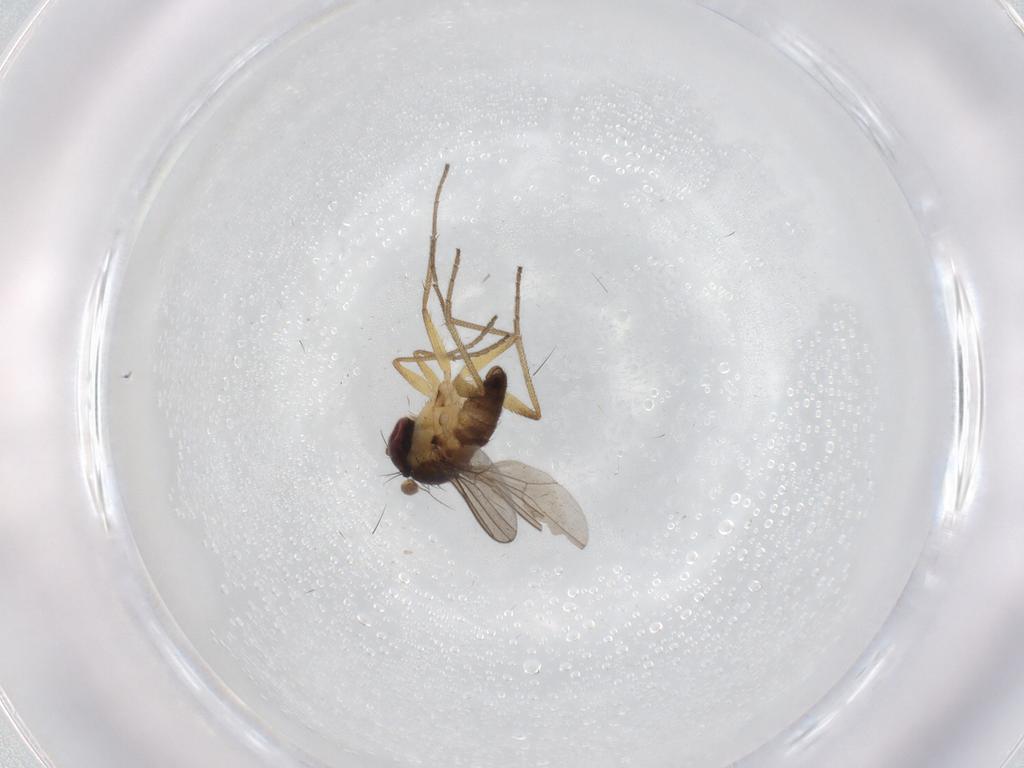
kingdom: Animalia
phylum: Arthropoda
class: Insecta
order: Diptera
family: Dolichopodidae
